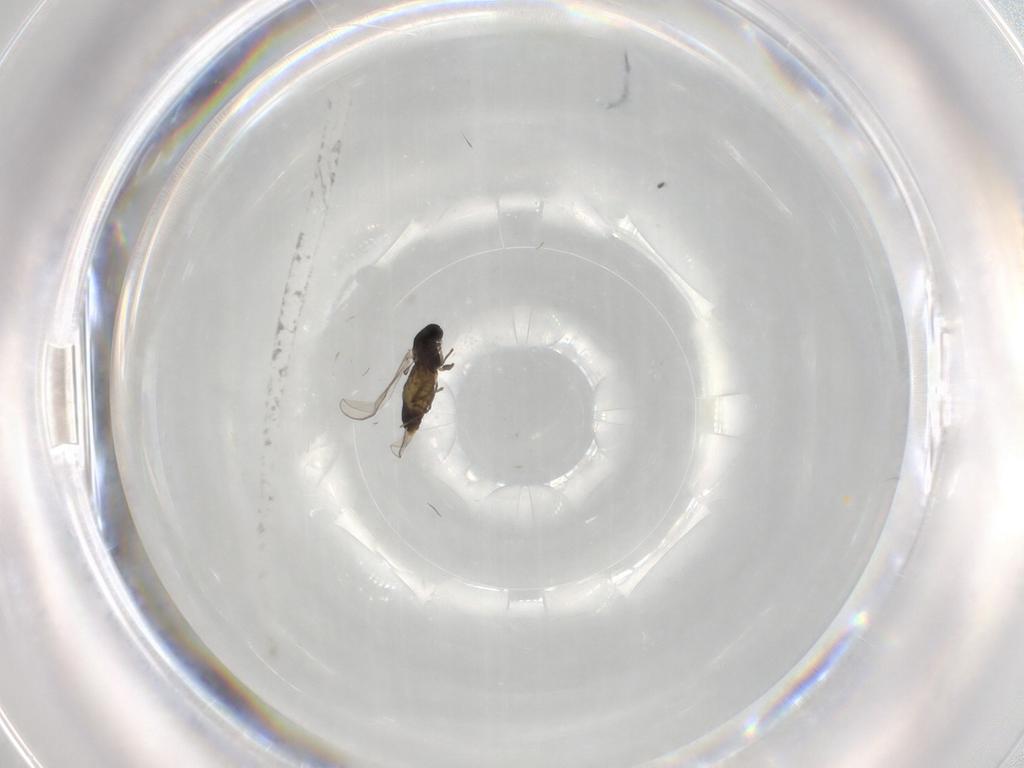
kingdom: Animalia
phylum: Arthropoda
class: Insecta
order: Diptera
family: Chironomidae
